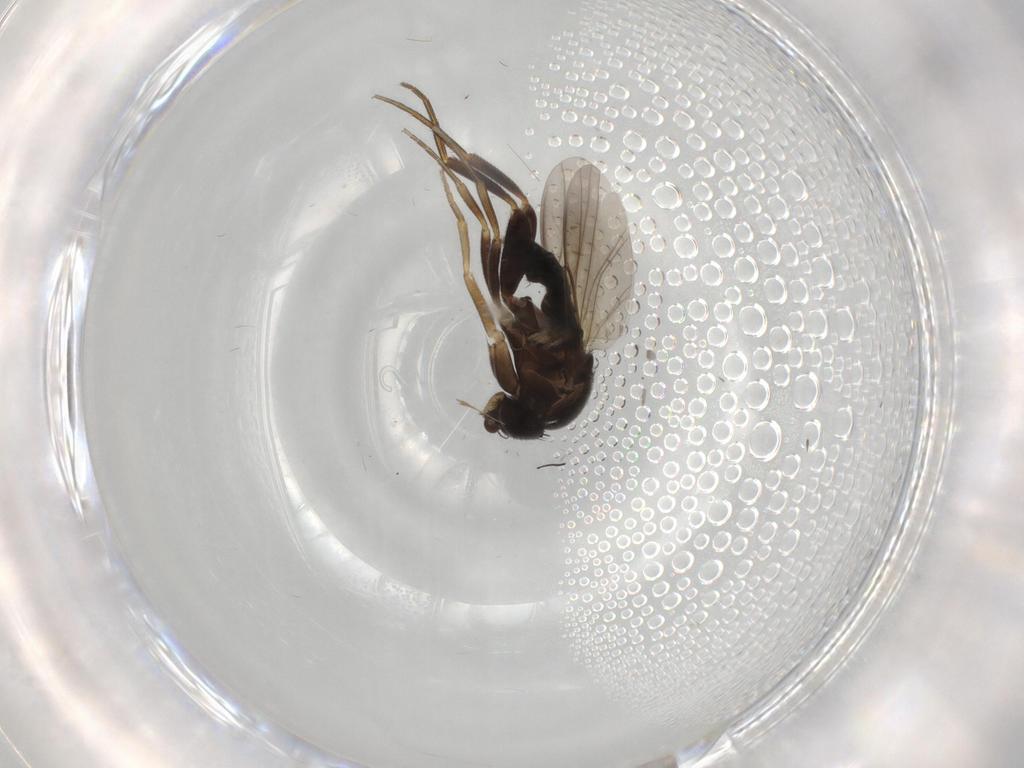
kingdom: Animalia
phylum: Arthropoda
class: Insecta
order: Diptera
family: Phoridae
